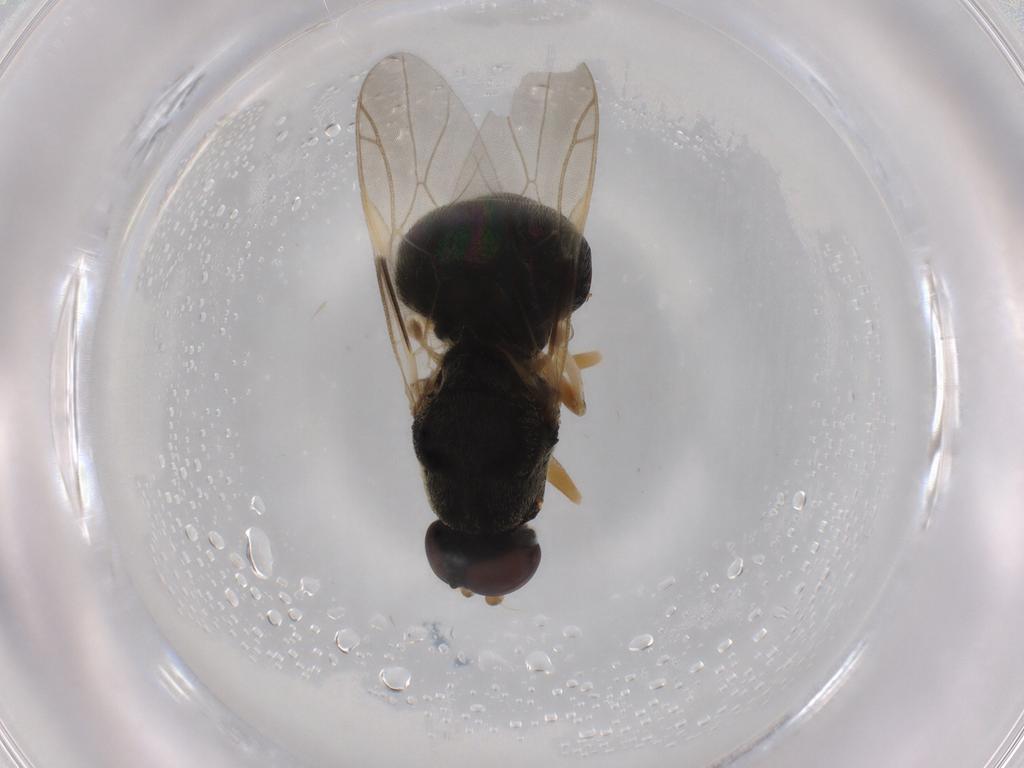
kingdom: Animalia
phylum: Arthropoda
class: Insecta
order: Diptera
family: Stratiomyidae
